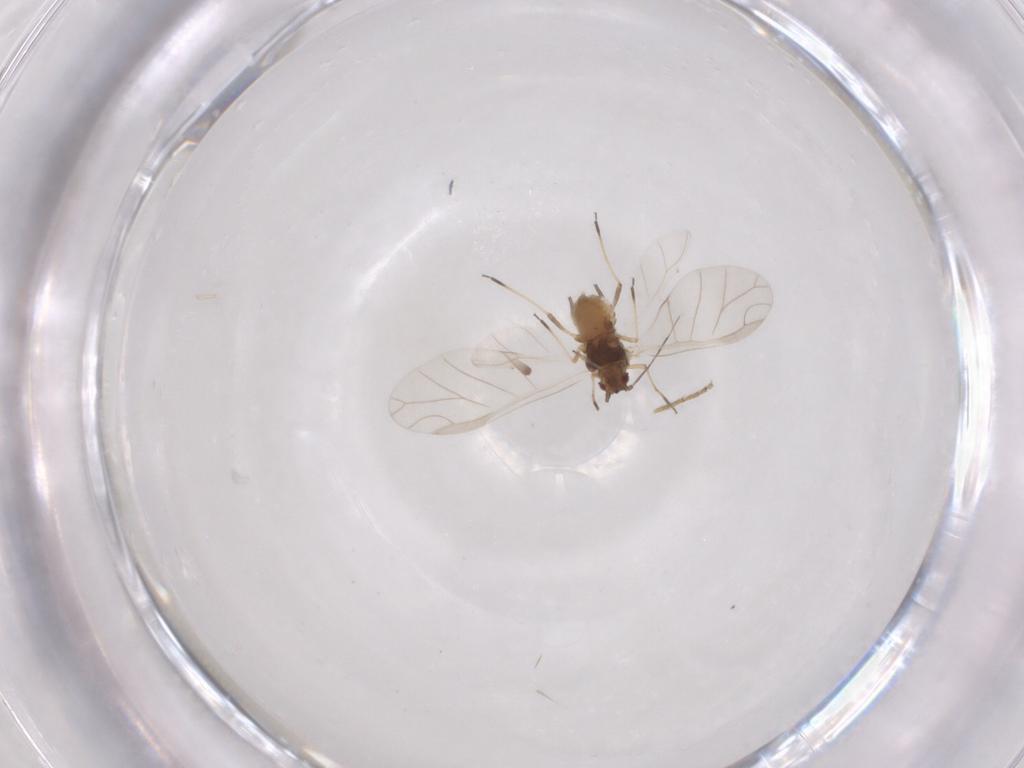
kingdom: Animalia
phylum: Arthropoda
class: Insecta
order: Hemiptera
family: Aphididae
